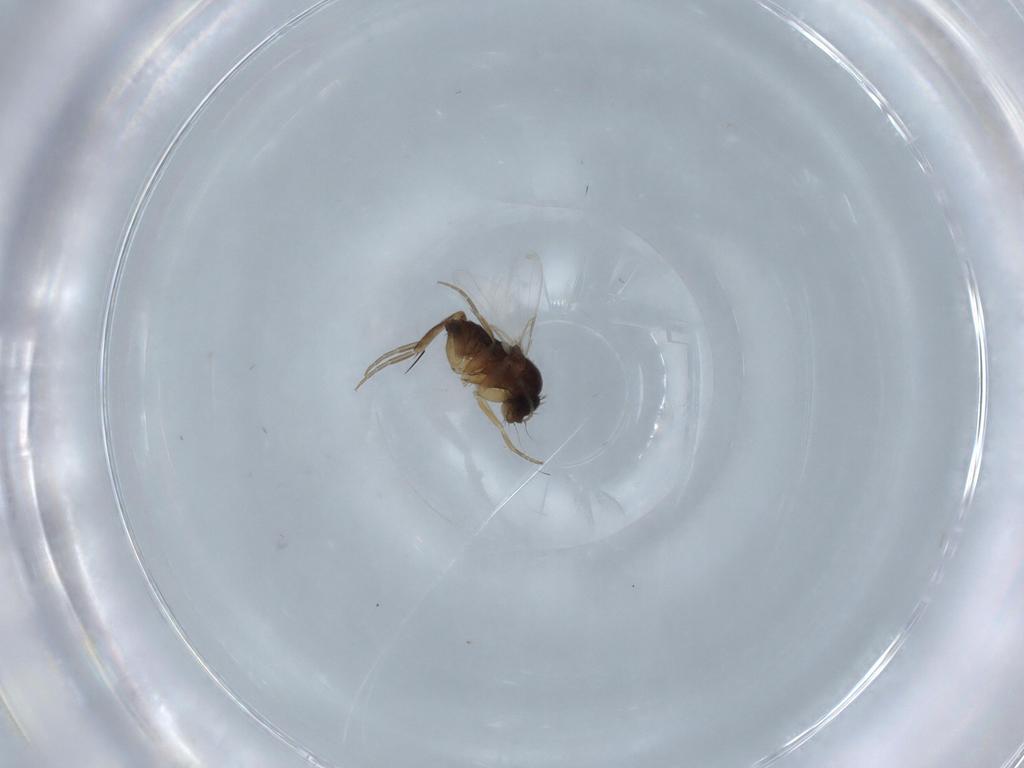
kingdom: Animalia
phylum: Arthropoda
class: Insecta
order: Diptera
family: Phoridae
